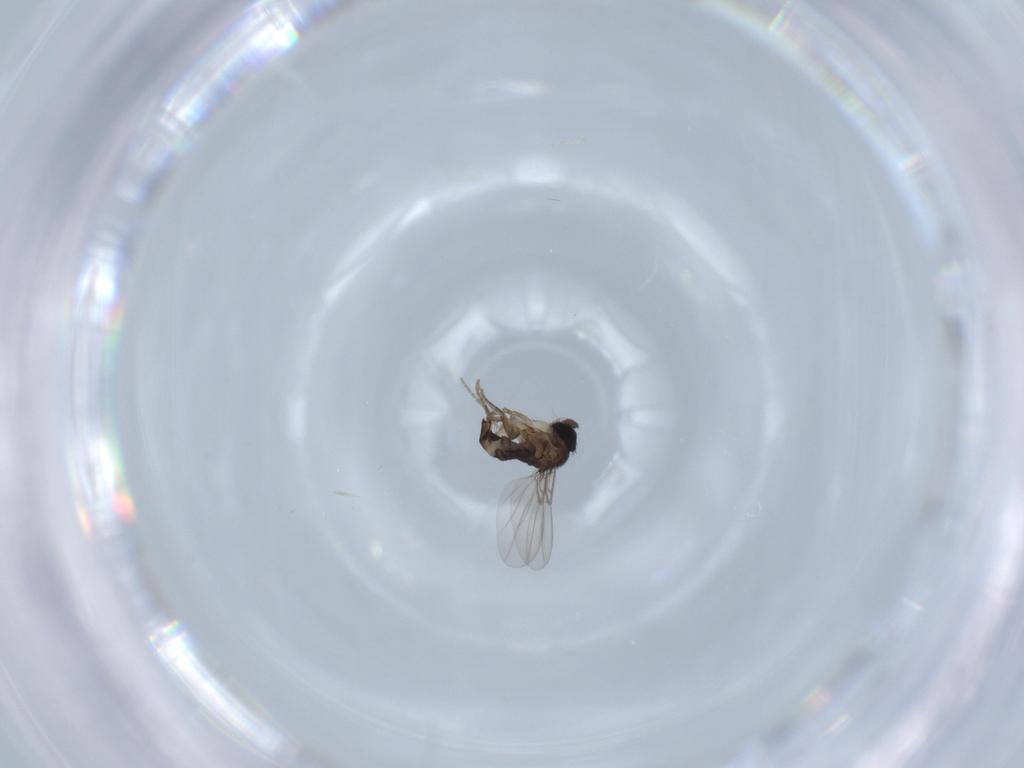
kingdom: Animalia
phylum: Arthropoda
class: Insecta
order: Diptera
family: Phoridae
